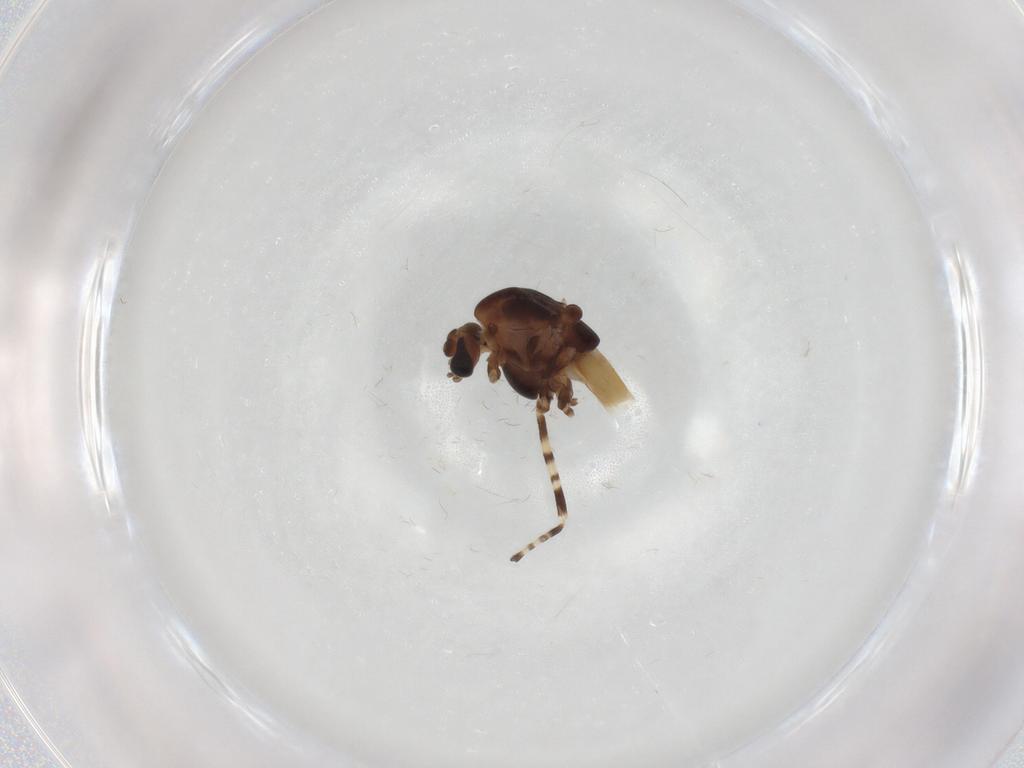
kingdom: Animalia
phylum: Arthropoda
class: Insecta
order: Diptera
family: Chironomidae
